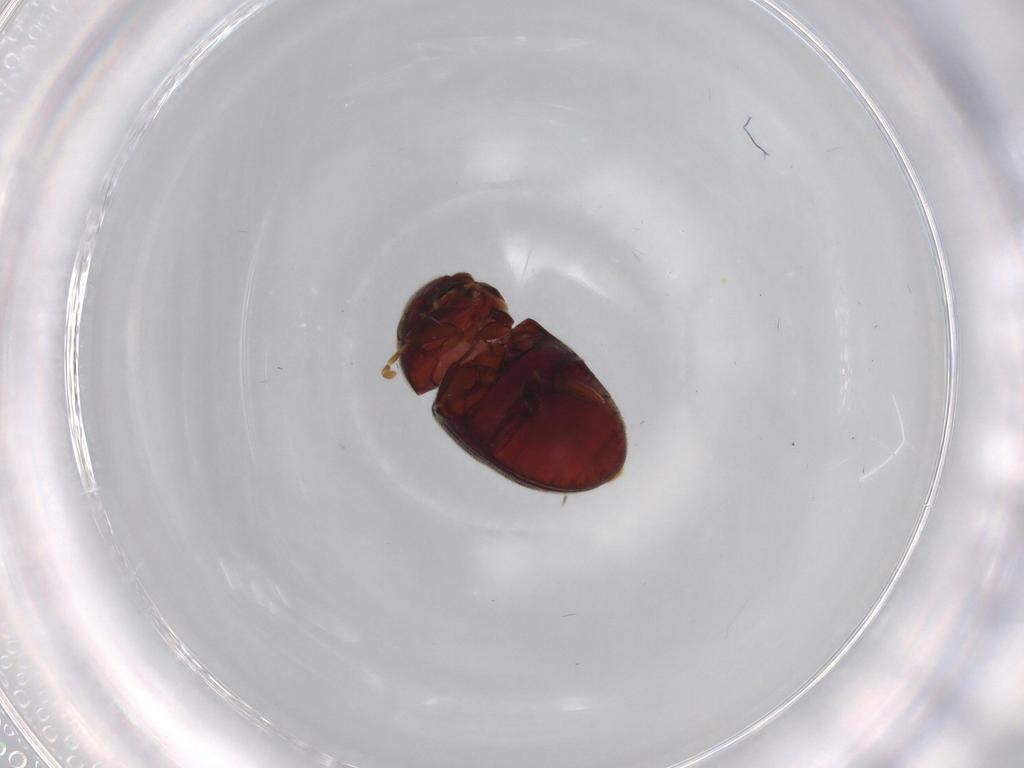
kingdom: Animalia
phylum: Arthropoda
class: Insecta
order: Coleoptera
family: Ptinidae
